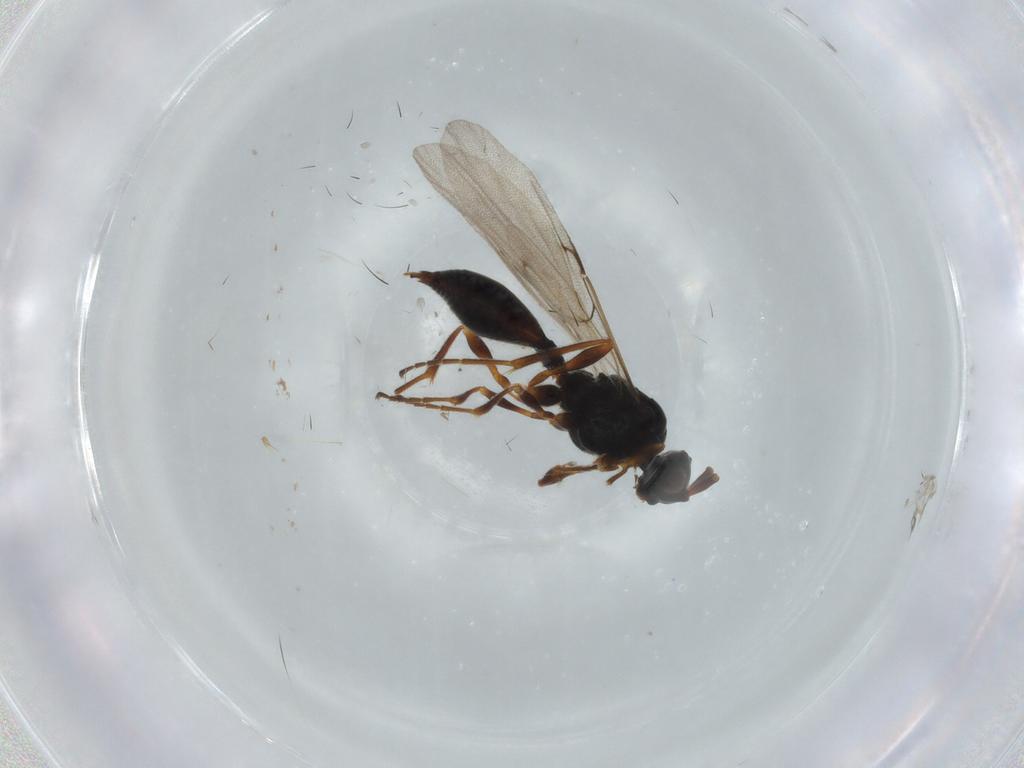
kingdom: Animalia
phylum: Arthropoda
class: Insecta
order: Hymenoptera
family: Diapriidae
